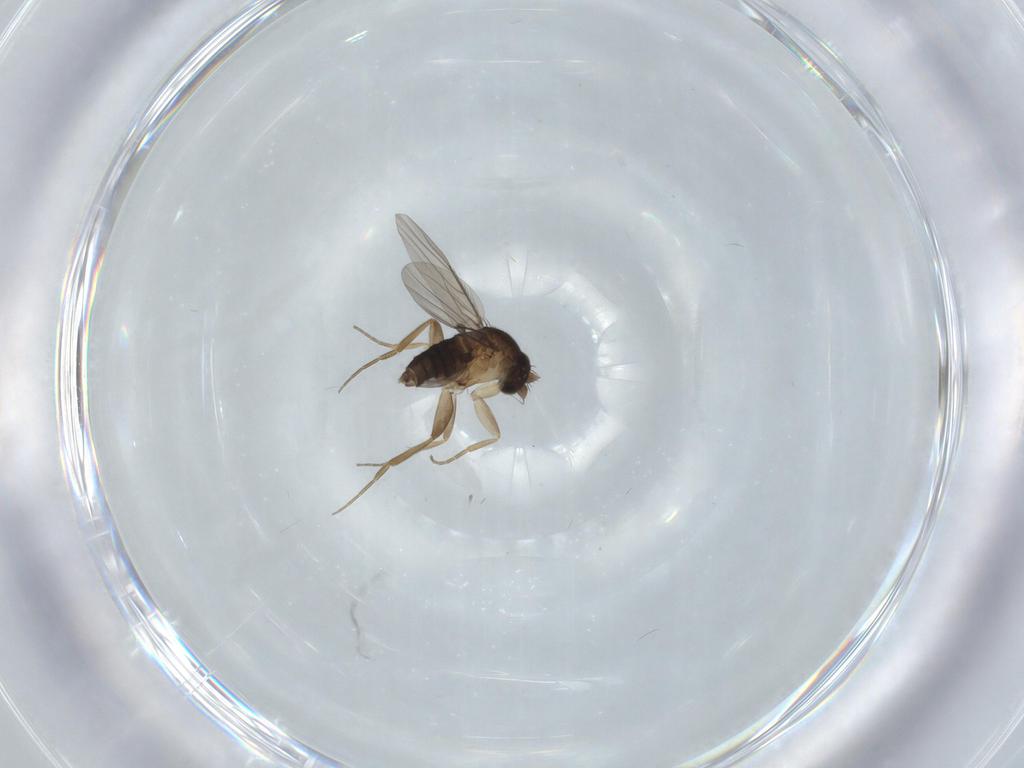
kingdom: Animalia
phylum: Arthropoda
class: Insecta
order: Diptera
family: Phoridae
